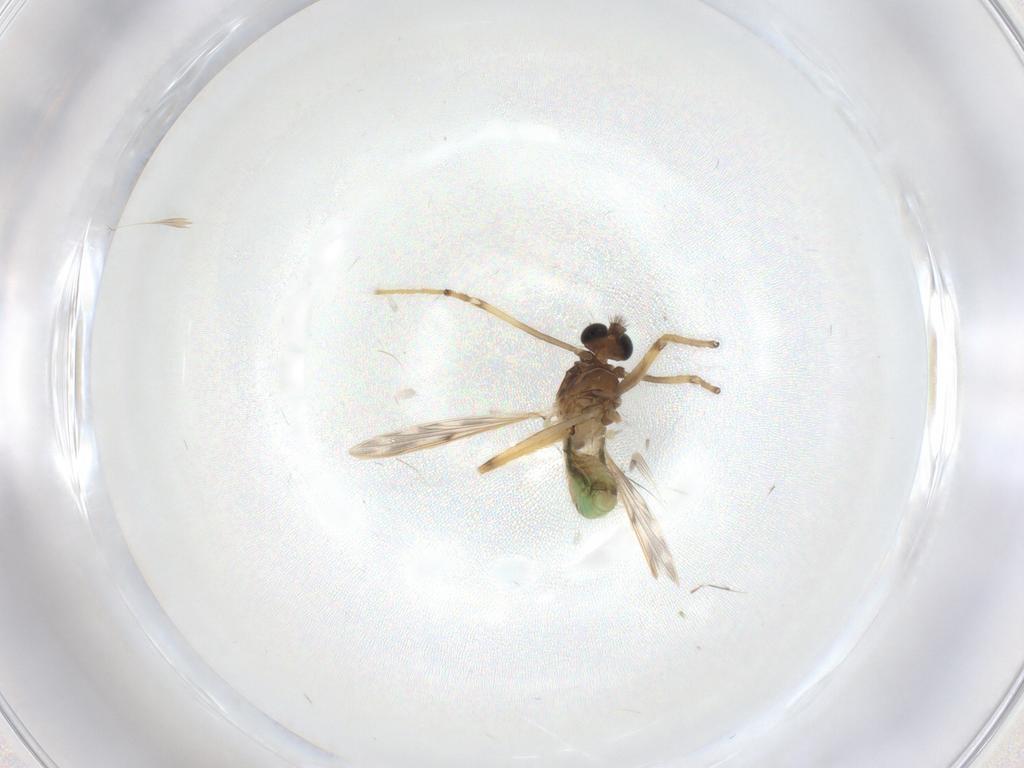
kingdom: Animalia
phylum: Arthropoda
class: Insecta
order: Diptera
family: Chironomidae
